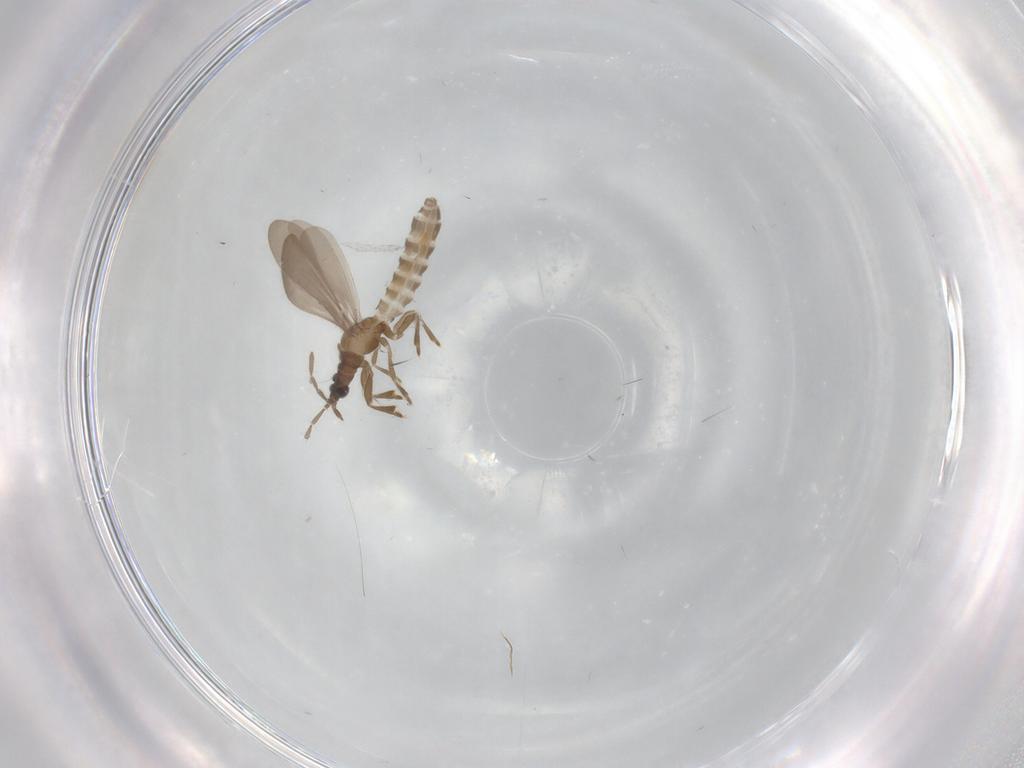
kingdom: Animalia
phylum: Arthropoda
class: Insecta
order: Hemiptera
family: Enicocephalidae
